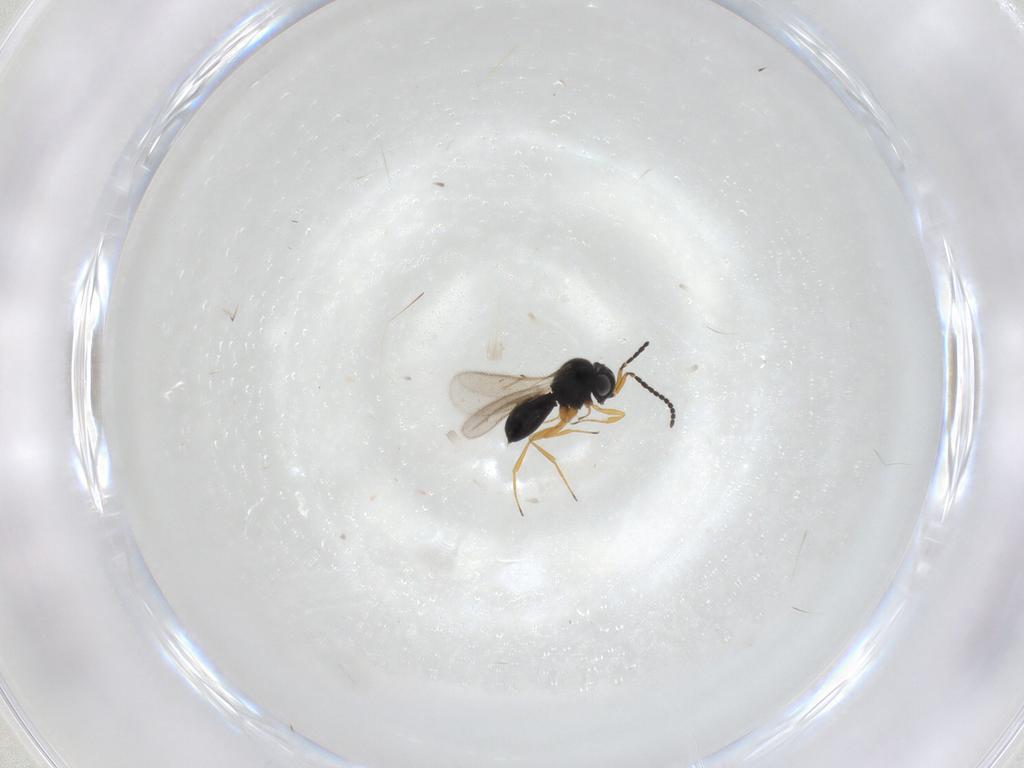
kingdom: Animalia
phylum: Arthropoda
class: Insecta
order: Hymenoptera
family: Scelionidae
